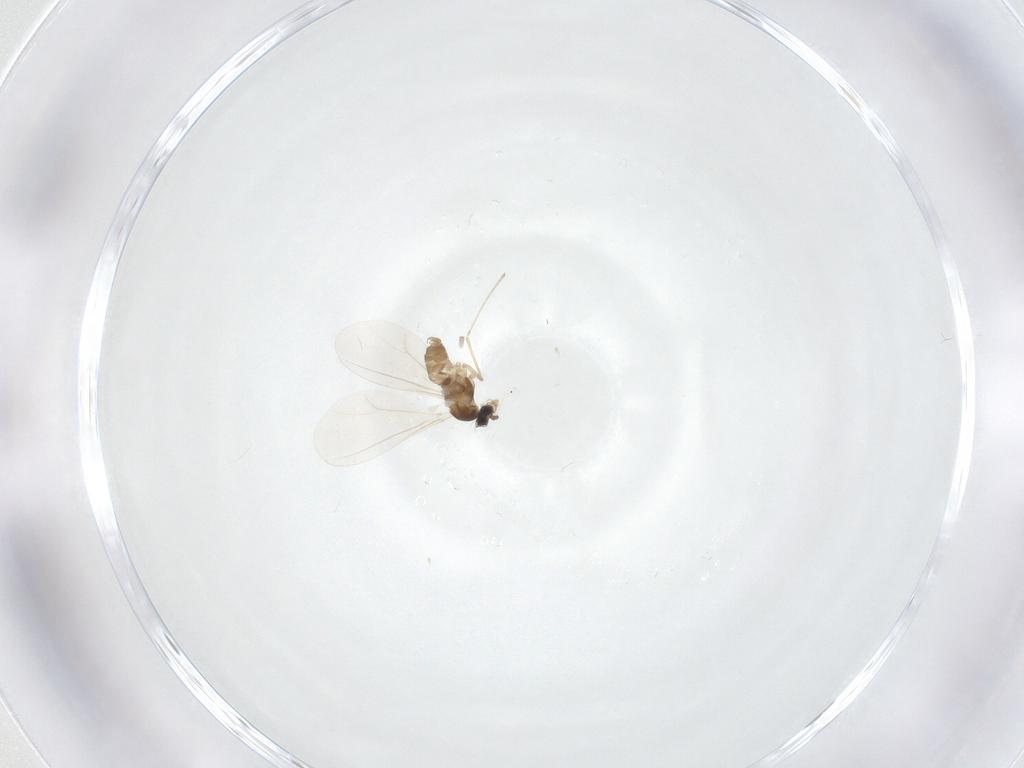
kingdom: Animalia
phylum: Arthropoda
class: Insecta
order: Diptera
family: Cecidomyiidae
